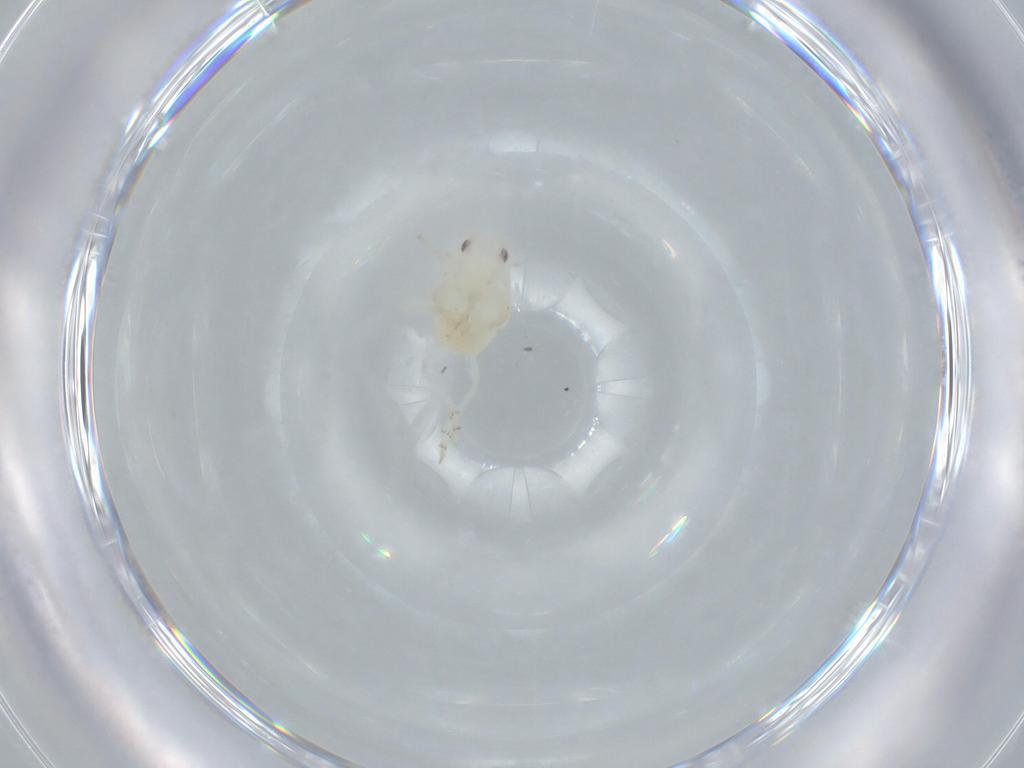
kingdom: Animalia
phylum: Arthropoda
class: Insecta
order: Hemiptera
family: Flatidae
